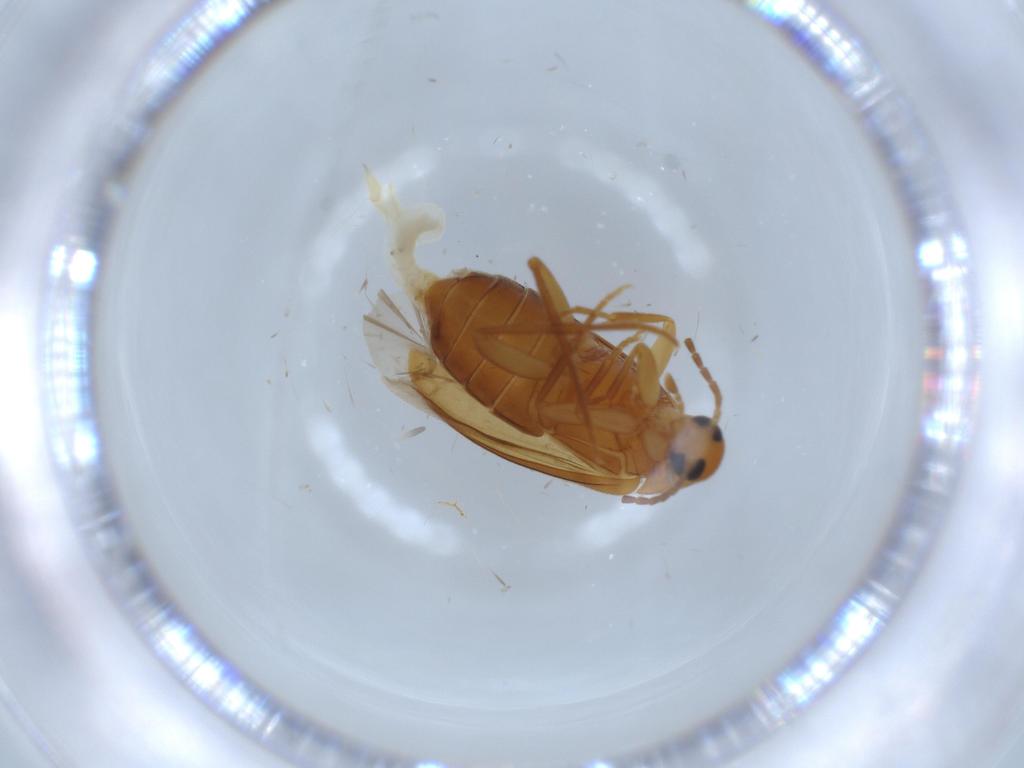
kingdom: Animalia
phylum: Arthropoda
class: Insecta
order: Coleoptera
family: Scraptiidae
